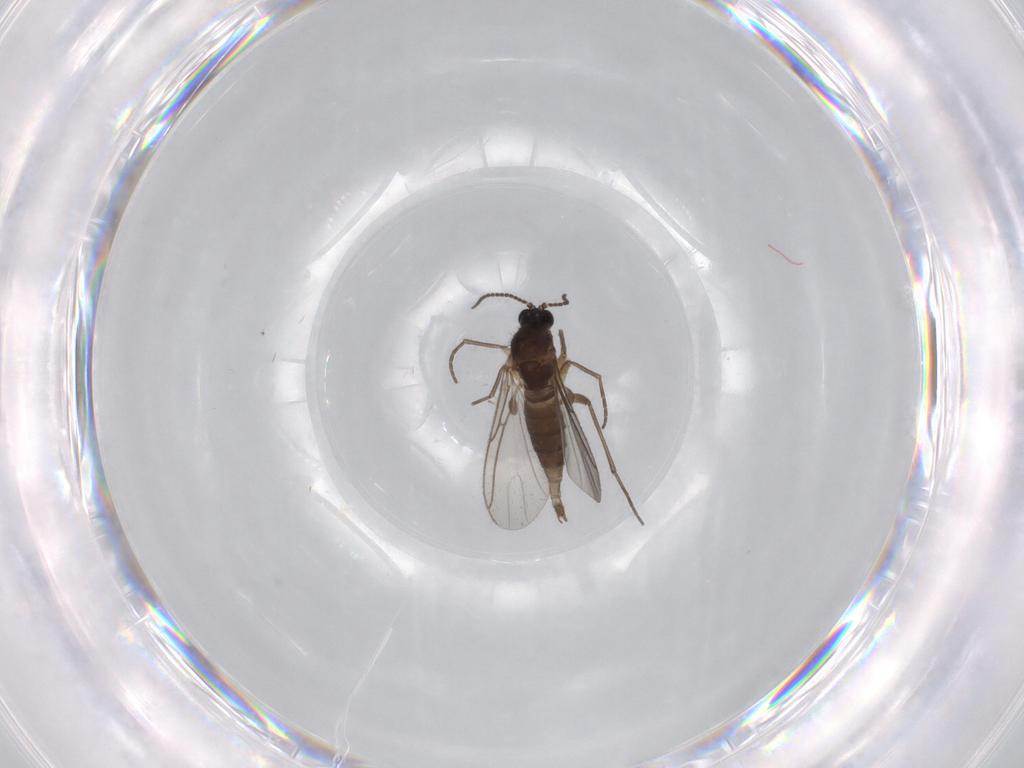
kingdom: Animalia
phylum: Arthropoda
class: Insecta
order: Diptera
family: Sciaridae
